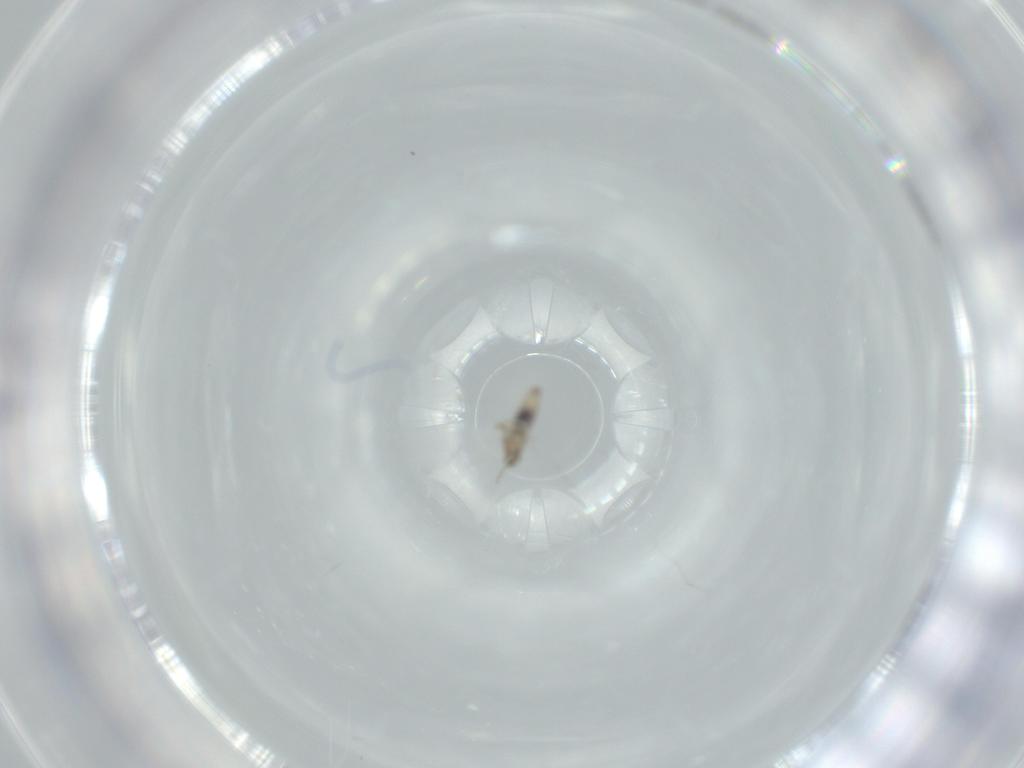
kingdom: Animalia
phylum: Arthropoda
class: Insecta
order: Diptera
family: Cecidomyiidae
